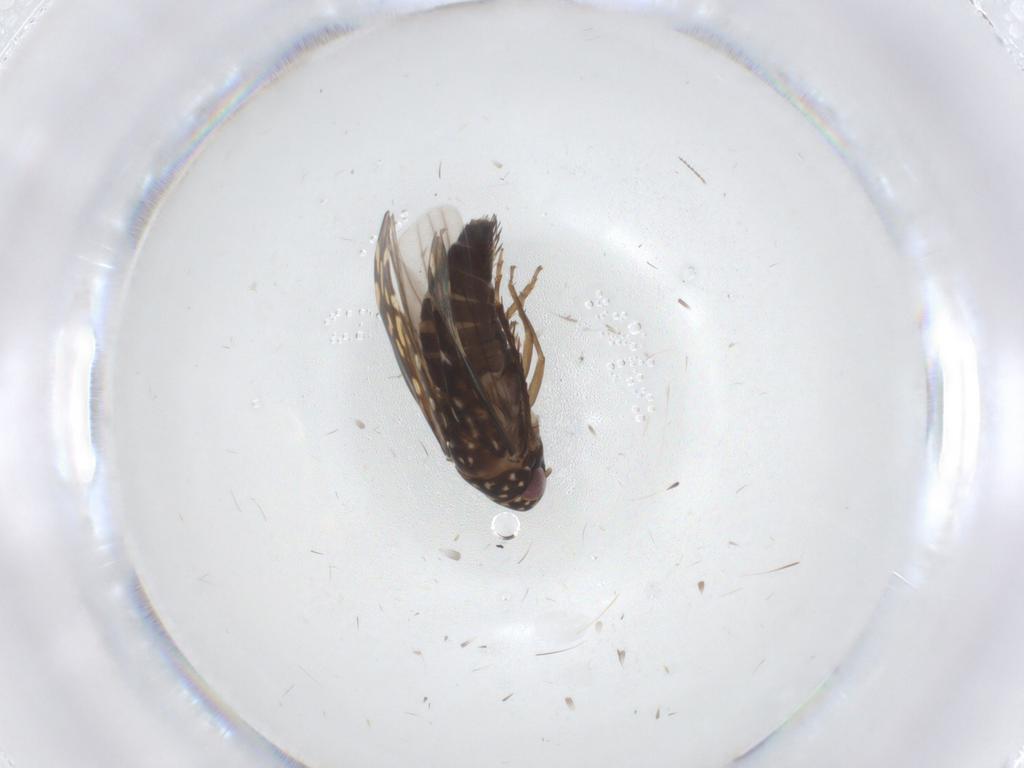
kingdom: Animalia
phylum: Arthropoda
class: Insecta
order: Hemiptera
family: Cicadellidae
